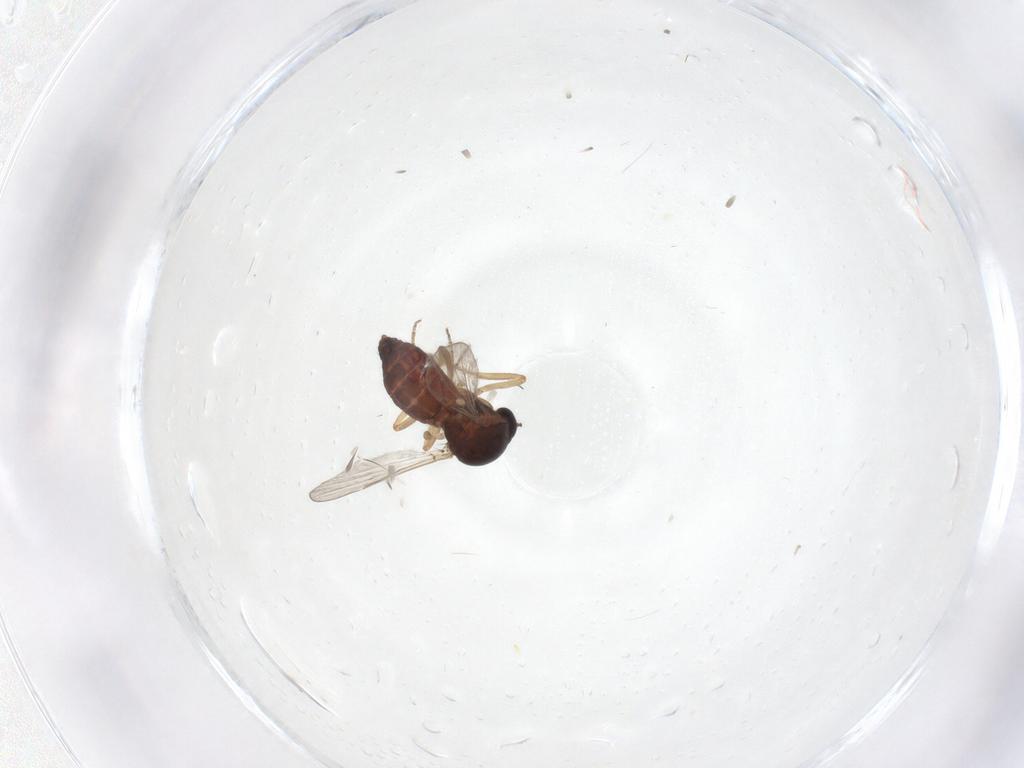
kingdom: Animalia
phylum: Arthropoda
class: Insecta
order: Diptera
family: Ceratopogonidae
